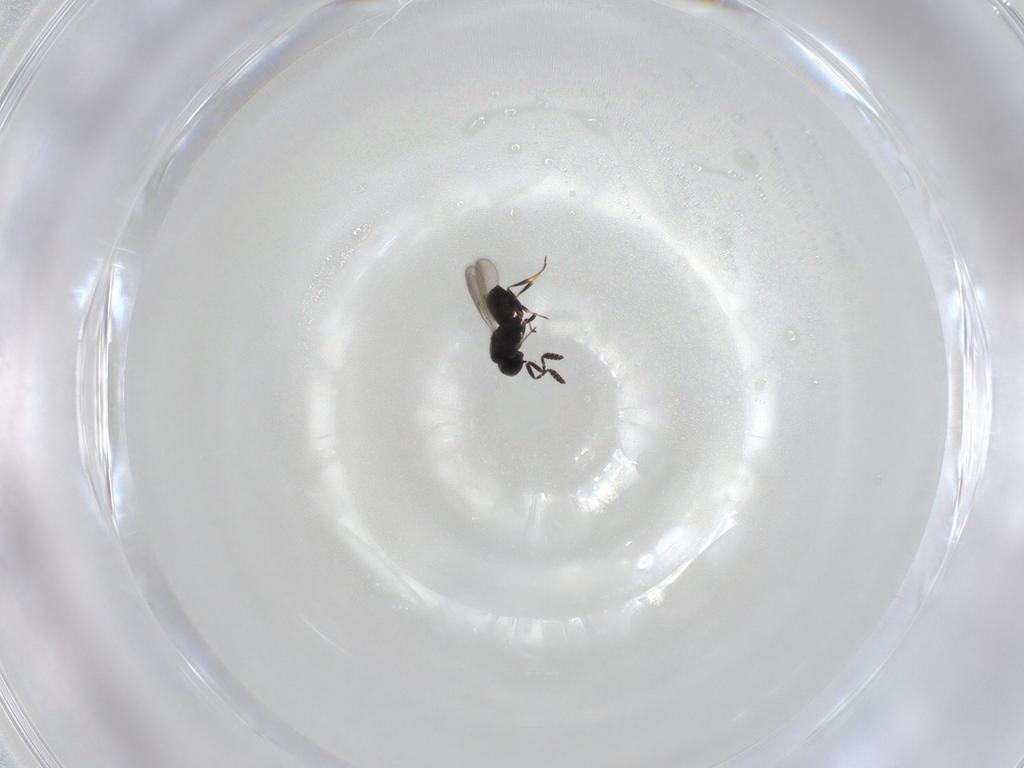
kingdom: Animalia
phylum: Arthropoda
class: Insecta
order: Hymenoptera
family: Scelionidae
